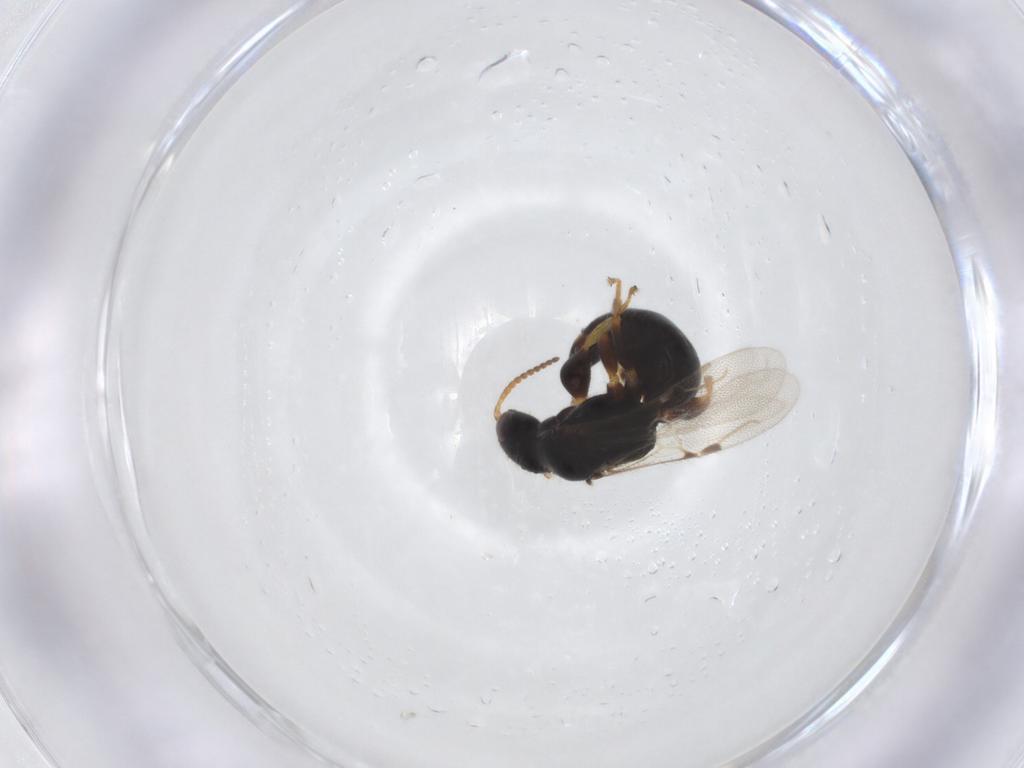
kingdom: Animalia
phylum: Arthropoda
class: Insecta
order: Hymenoptera
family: Bethylidae
